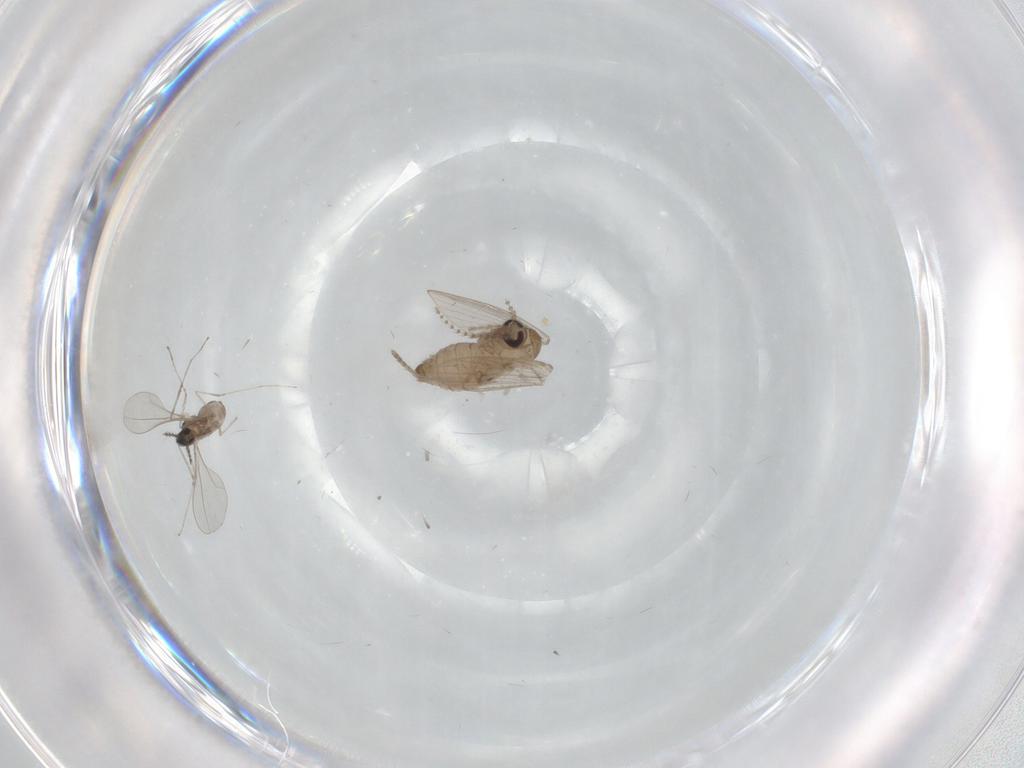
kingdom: Animalia
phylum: Arthropoda
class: Insecta
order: Diptera
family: Psychodidae
